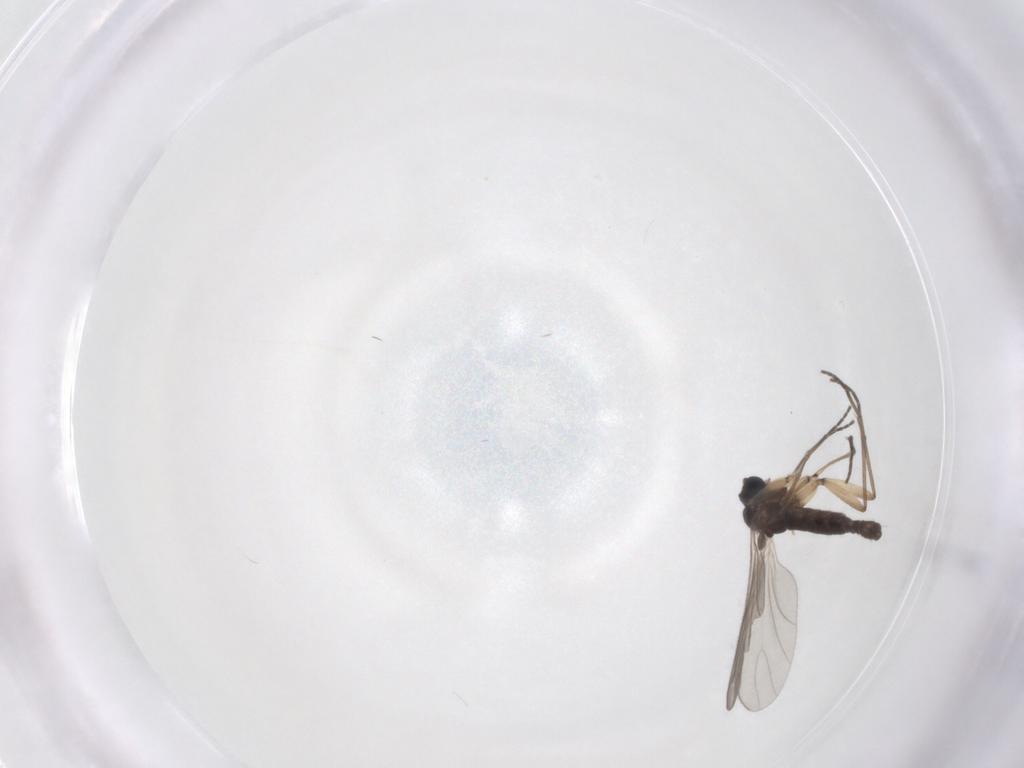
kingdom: Animalia
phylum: Arthropoda
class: Insecta
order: Diptera
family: Sciaridae
